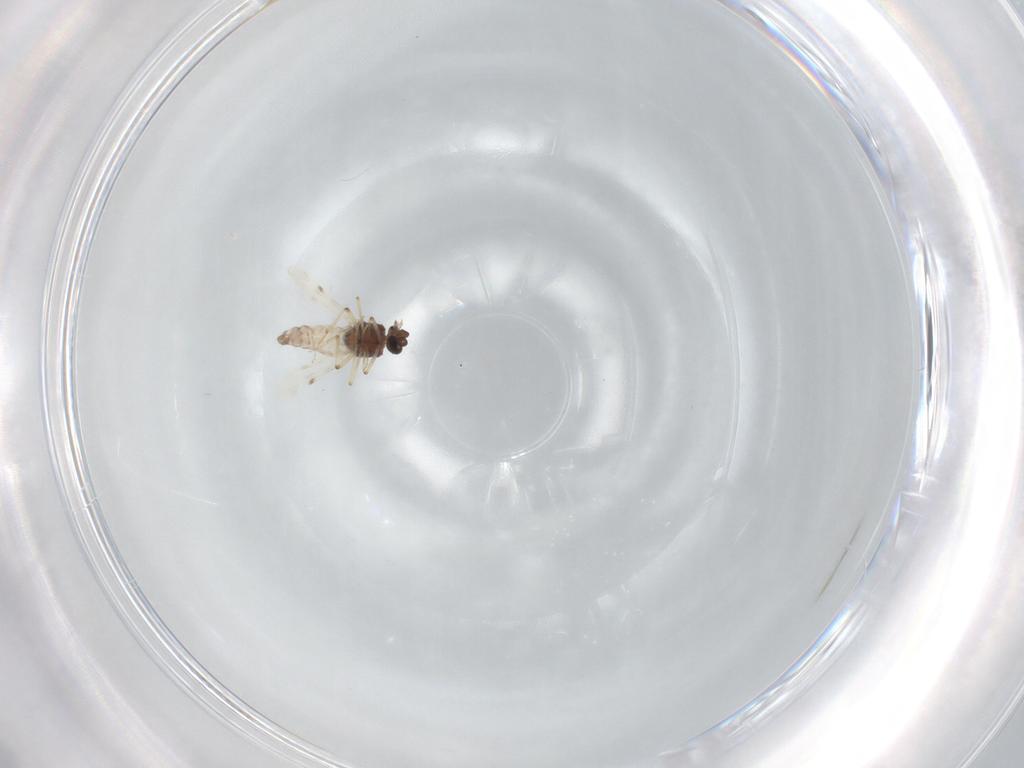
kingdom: Animalia
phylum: Arthropoda
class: Insecta
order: Diptera
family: Dolichopodidae
